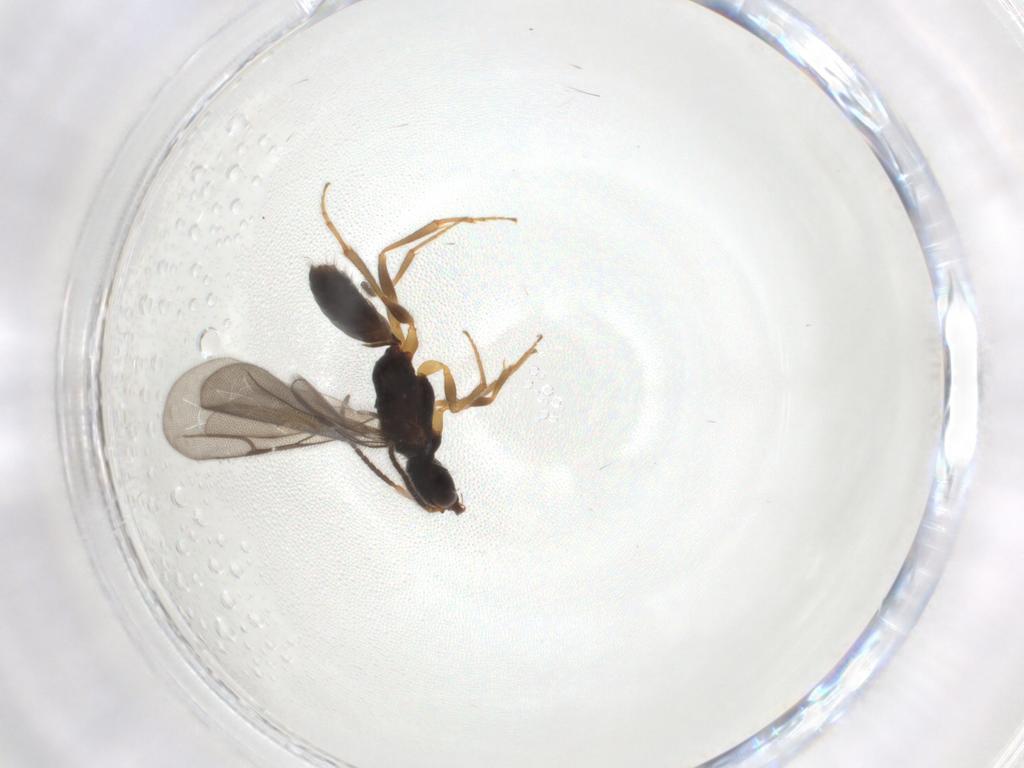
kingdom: Animalia
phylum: Arthropoda
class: Insecta
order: Hymenoptera
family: Bethylidae
